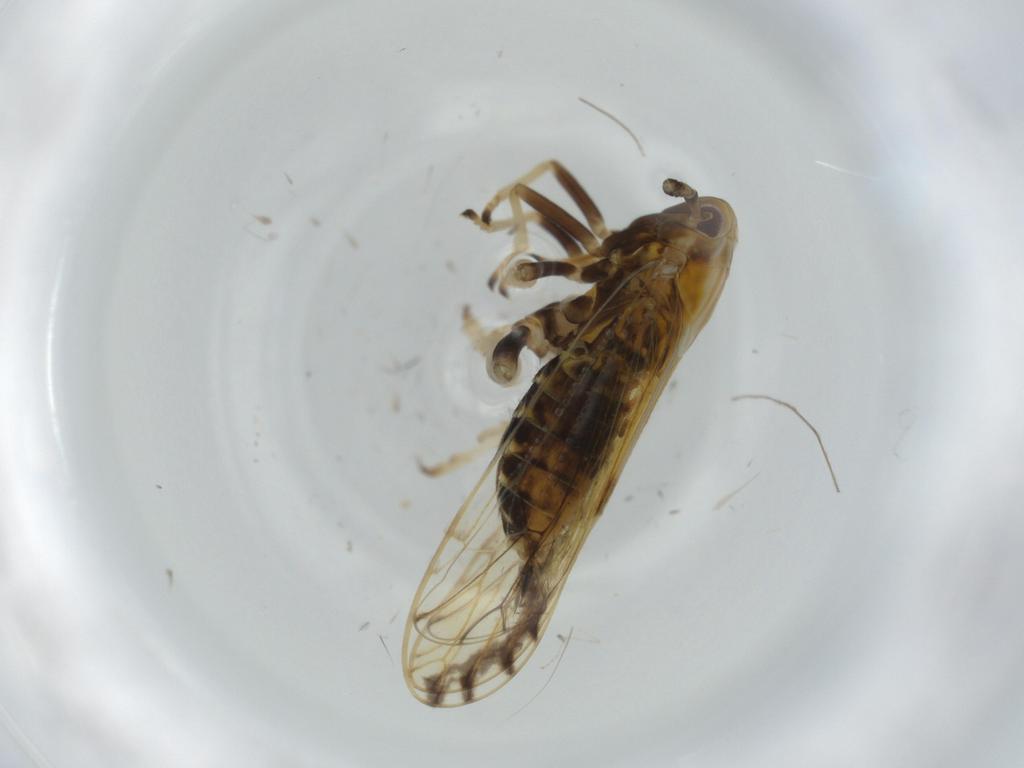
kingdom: Animalia
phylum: Arthropoda
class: Insecta
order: Hemiptera
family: Delphacidae
